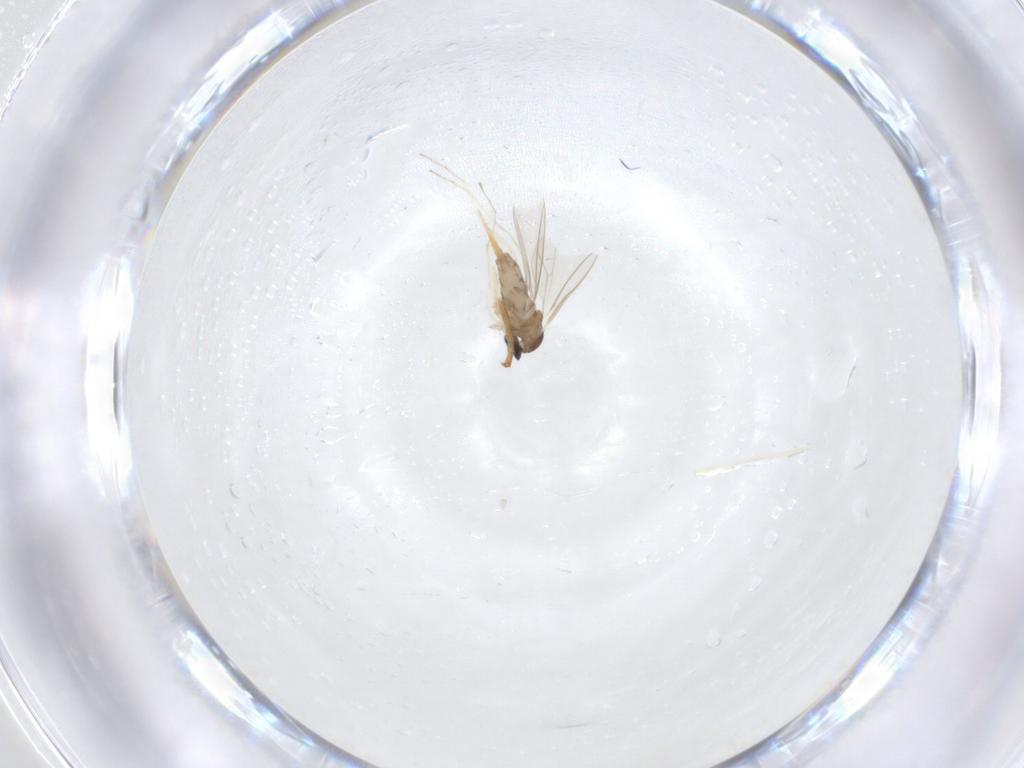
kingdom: Animalia
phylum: Arthropoda
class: Insecta
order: Diptera
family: Cecidomyiidae
